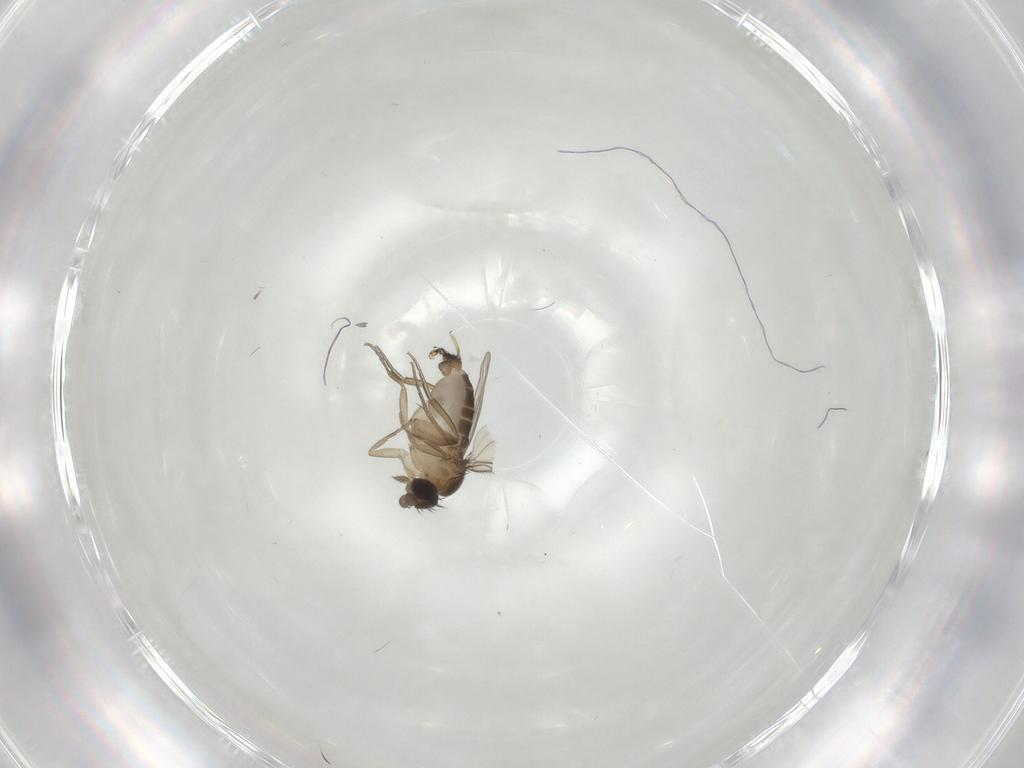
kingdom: Animalia
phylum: Arthropoda
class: Insecta
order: Diptera
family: Phoridae
